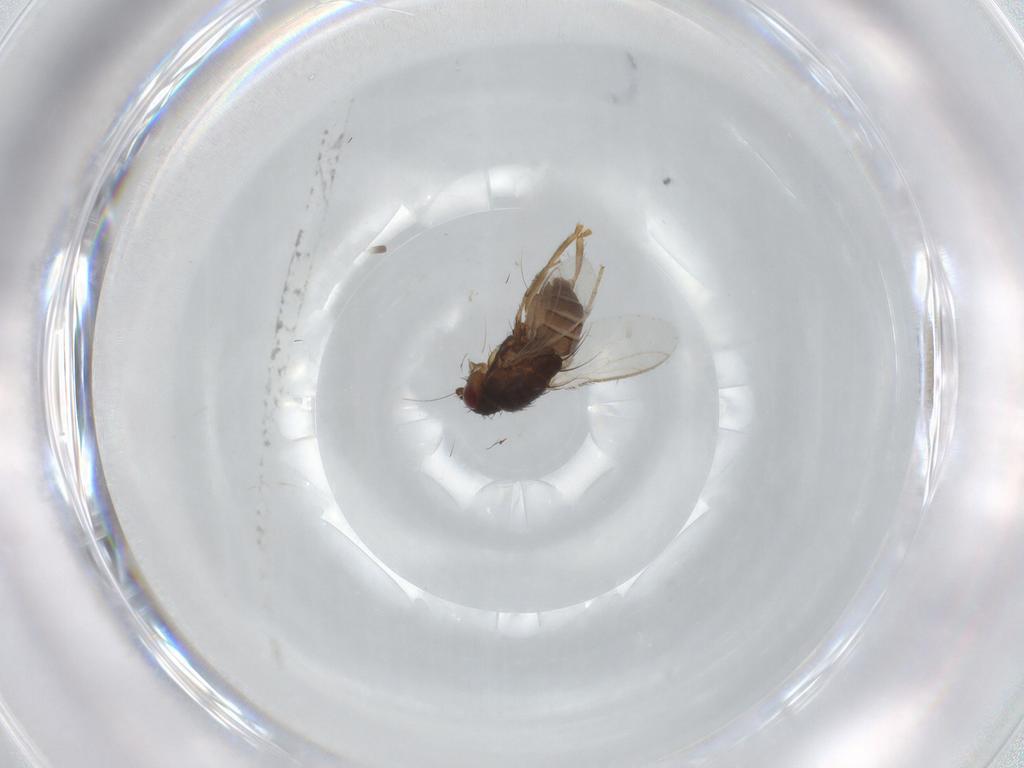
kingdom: Animalia
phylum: Arthropoda
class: Insecta
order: Diptera
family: Sphaeroceridae
